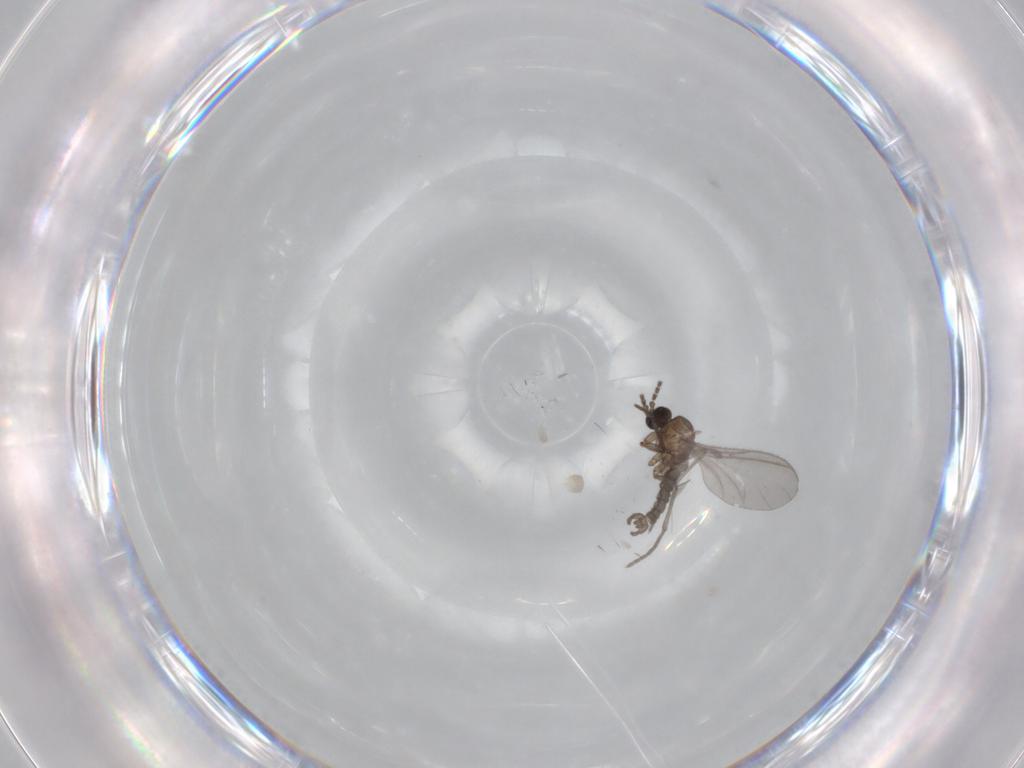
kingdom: Animalia
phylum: Arthropoda
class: Insecta
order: Diptera
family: Sciaridae
